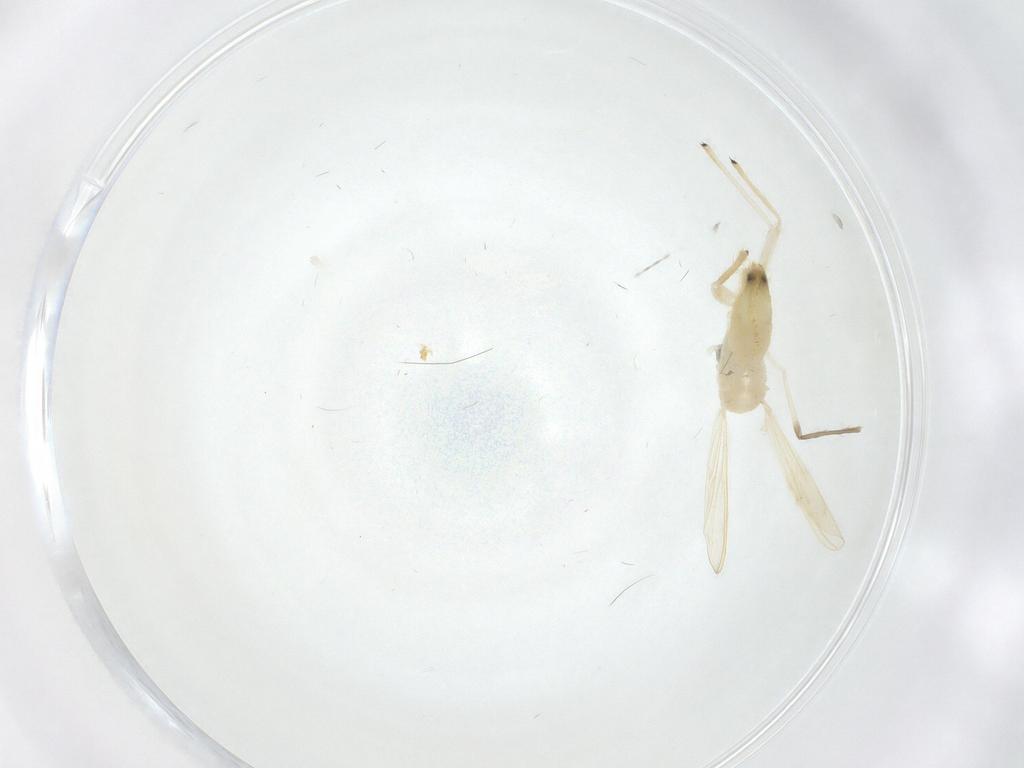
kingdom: Animalia
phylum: Arthropoda
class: Insecta
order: Diptera
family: Chironomidae
